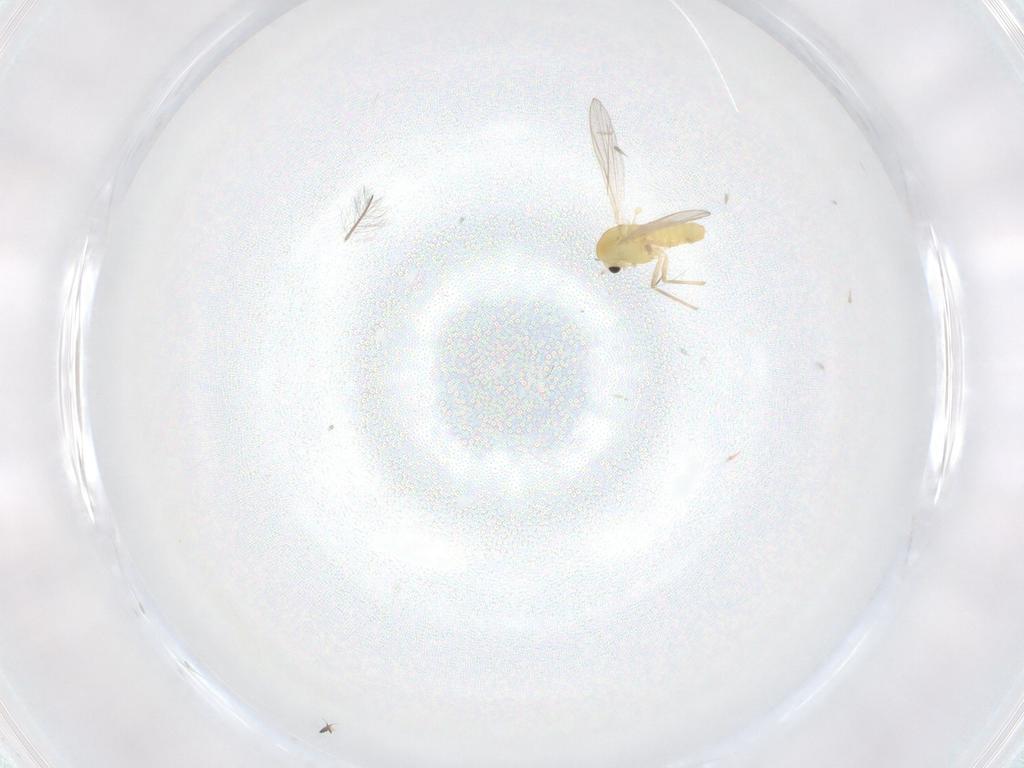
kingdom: Animalia
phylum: Arthropoda
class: Insecta
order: Diptera
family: Chironomidae
